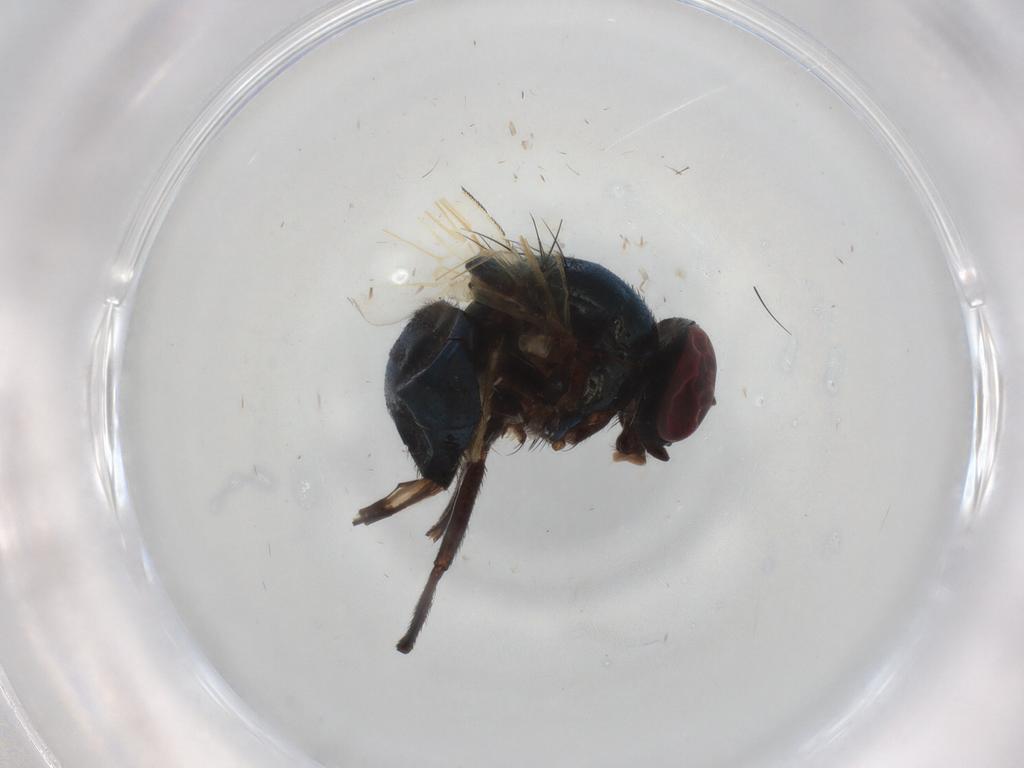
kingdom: Animalia
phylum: Arthropoda
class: Insecta
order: Diptera
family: Lonchaeidae
